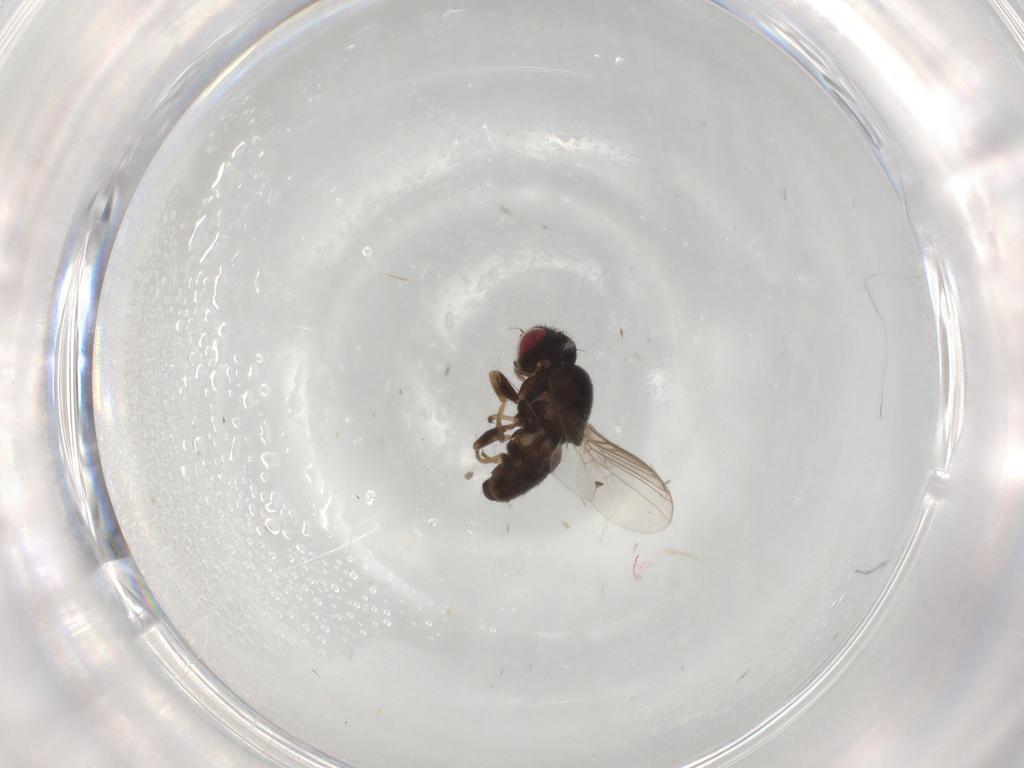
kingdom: Animalia
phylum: Arthropoda
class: Insecta
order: Diptera
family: Chloropidae
